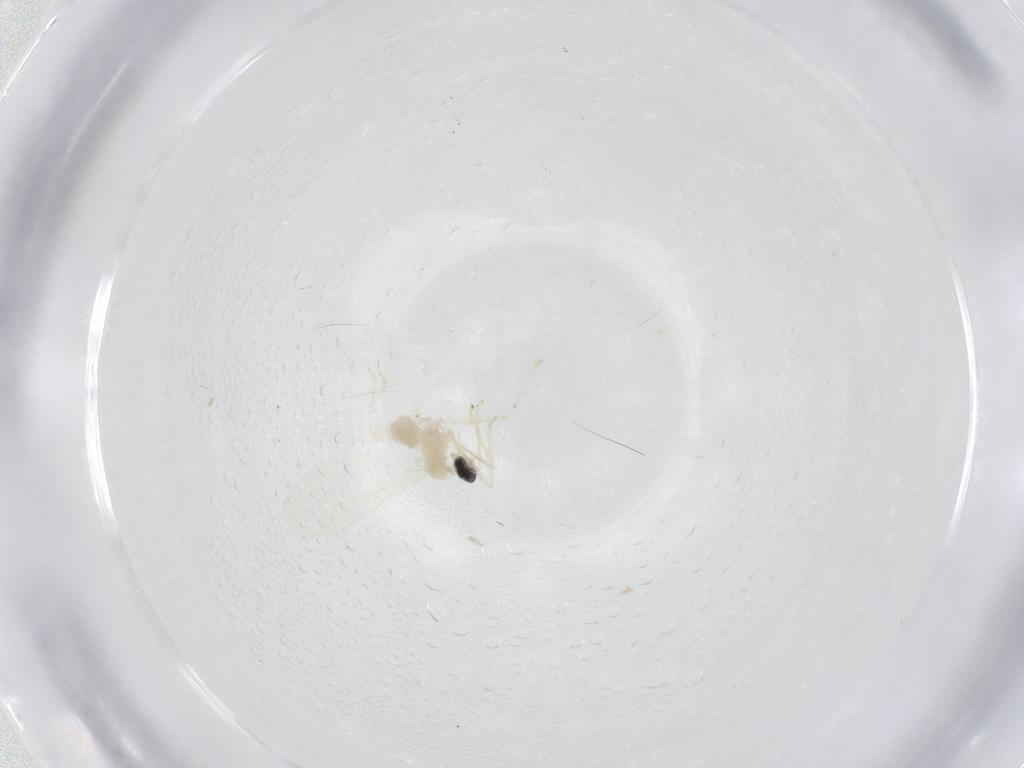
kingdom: Animalia
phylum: Arthropoda
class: Insecta
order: Diptera
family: Cecidomyiidae
